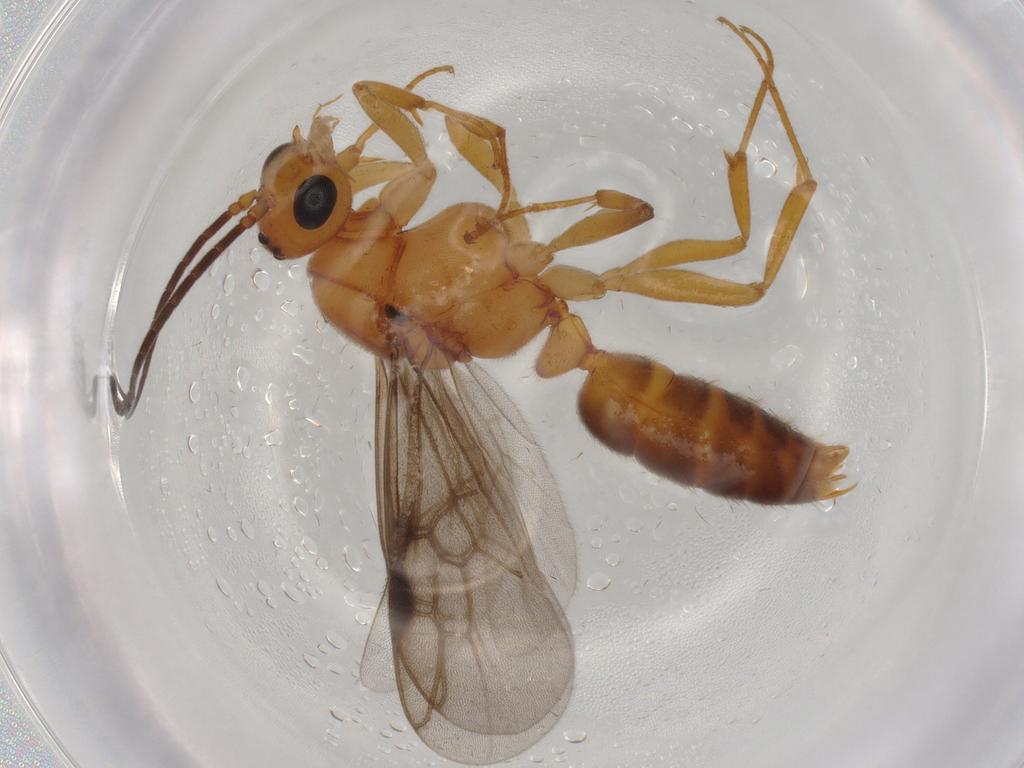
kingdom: Animalia
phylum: Arthropoda
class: Insecta
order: Hymenoptera
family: Formicidae
